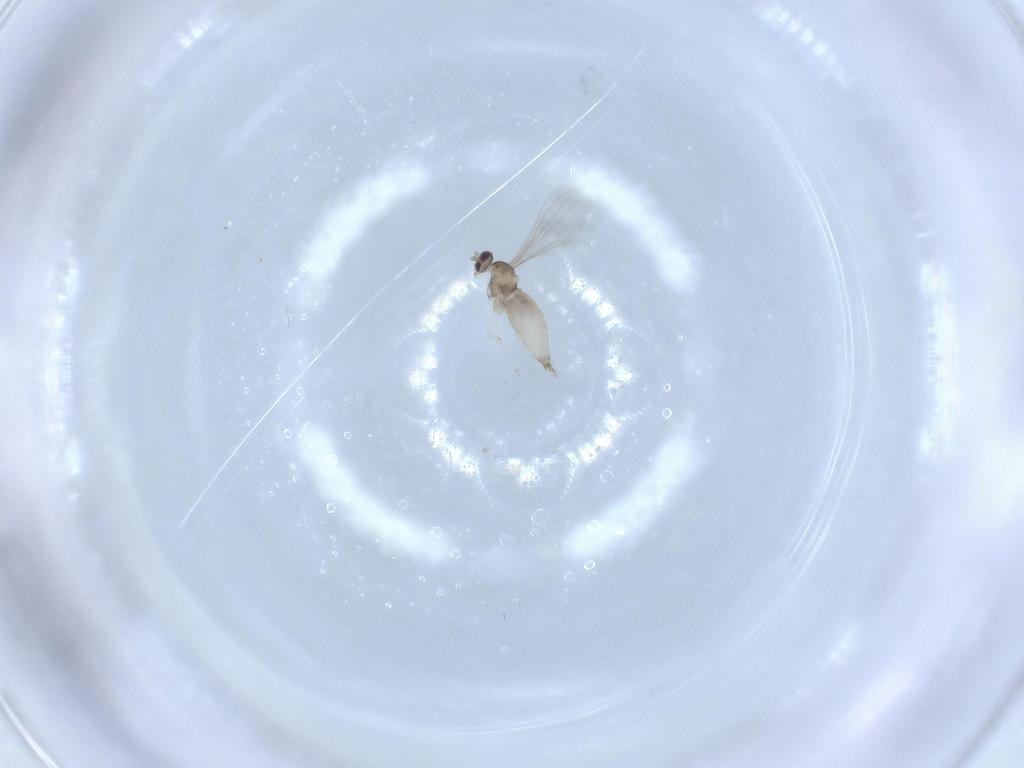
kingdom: Animalia
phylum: Arthropoda
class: Insecta
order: Diptera
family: Cecidomyiidae
